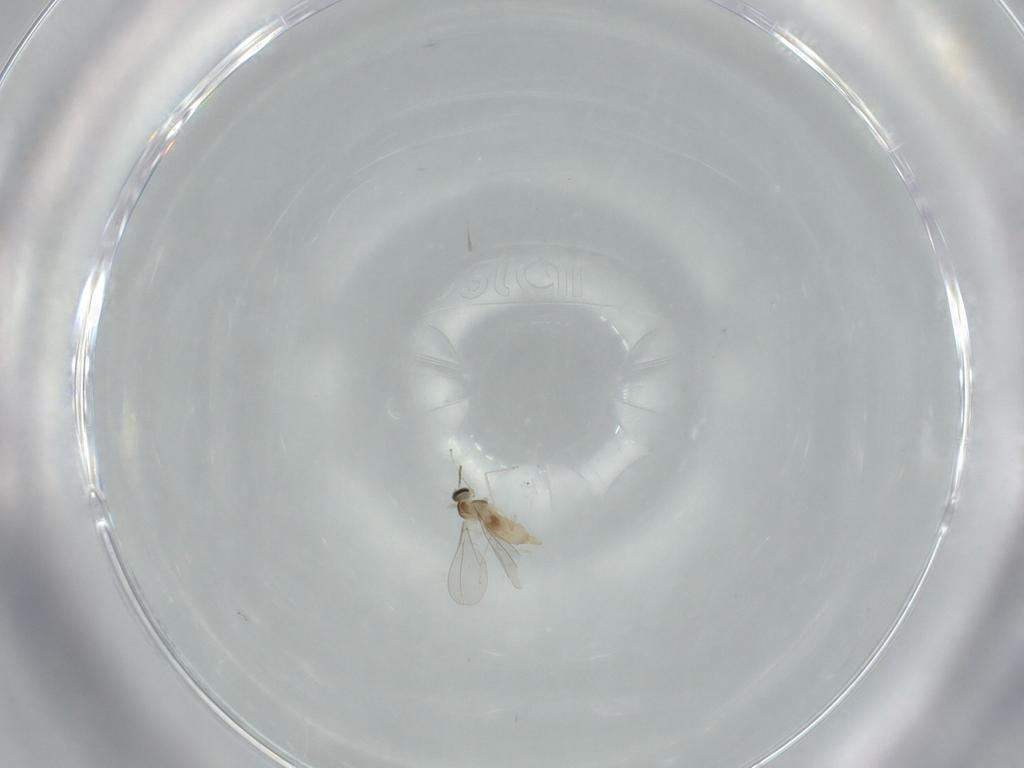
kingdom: Animalia
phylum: Arthropoda
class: Insecta
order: Diptera
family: Cecidomyiidae
